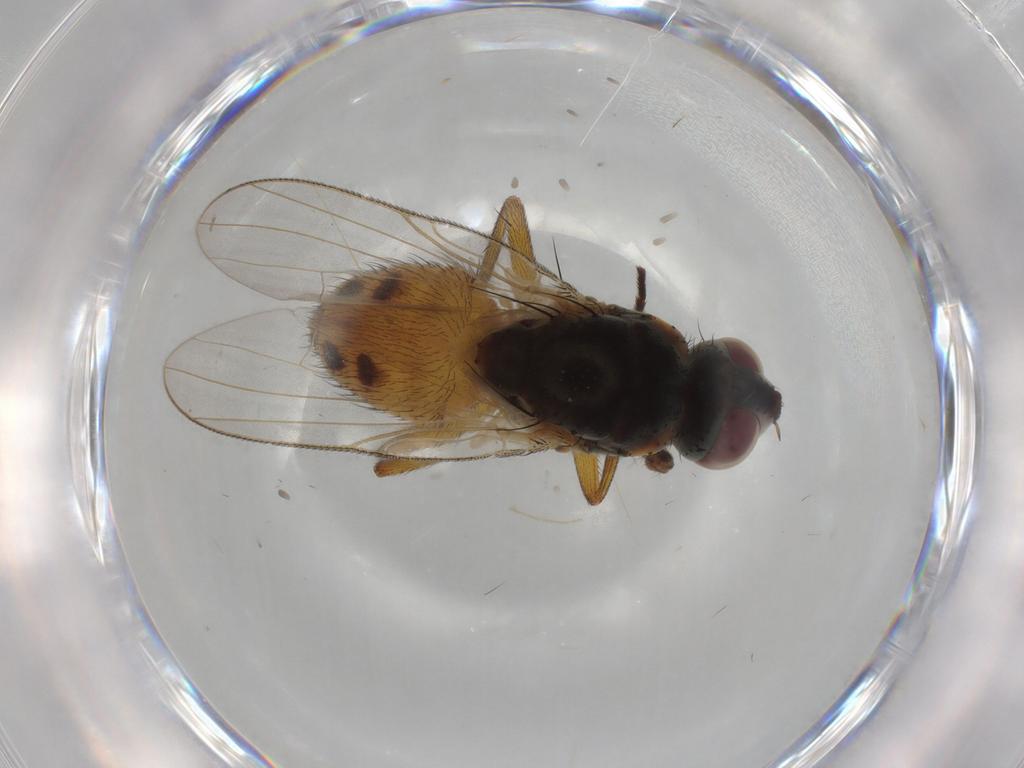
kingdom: Animalia
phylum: Arthropoda
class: Insecta
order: Diptera
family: Muscidae
